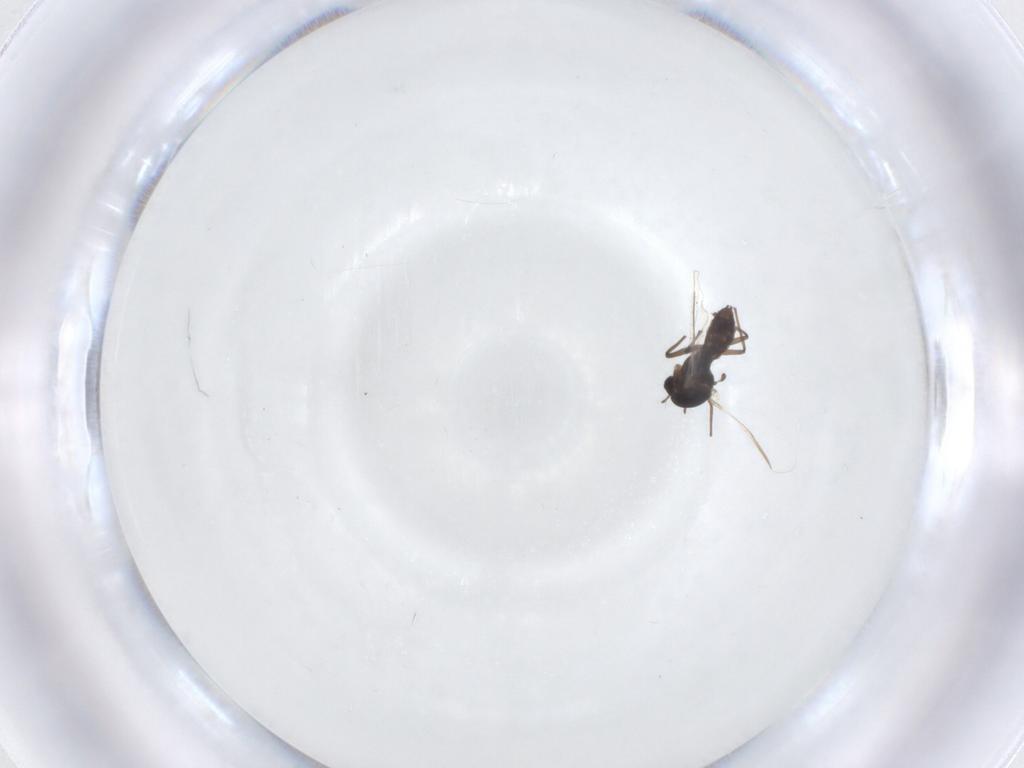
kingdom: Animalia
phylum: Arthropoda
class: Insecta
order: Diptera
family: Chironomidae
